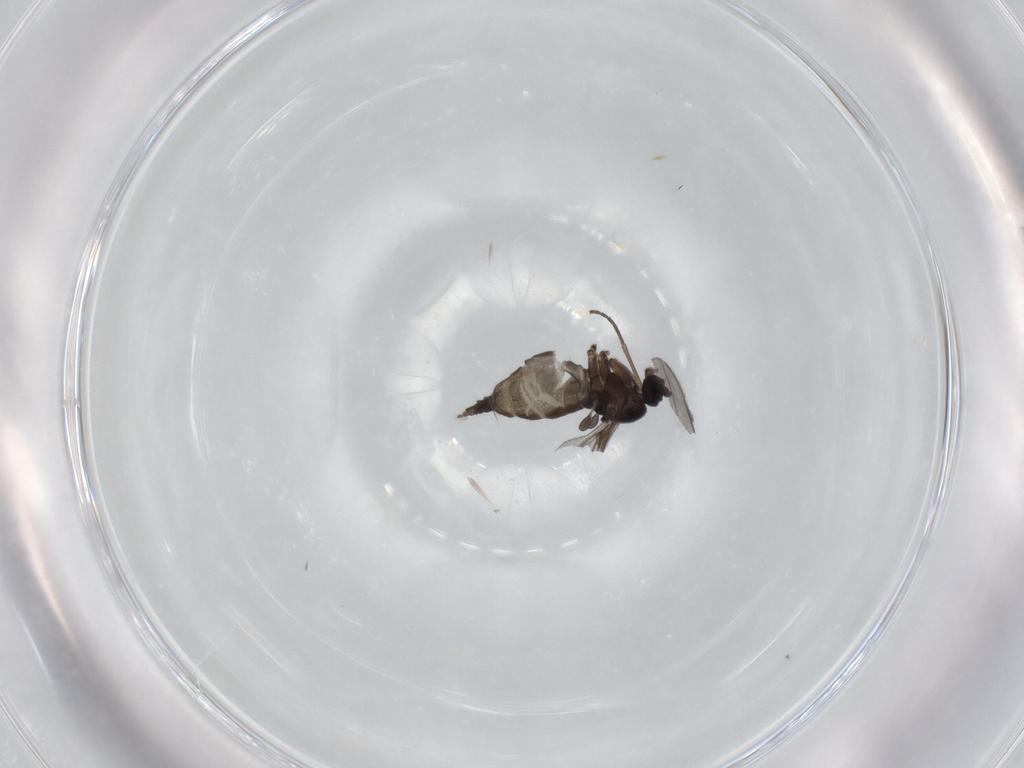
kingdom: Animalia
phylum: Arthropoda
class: Insecta
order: Diptera
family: Sciaridae
